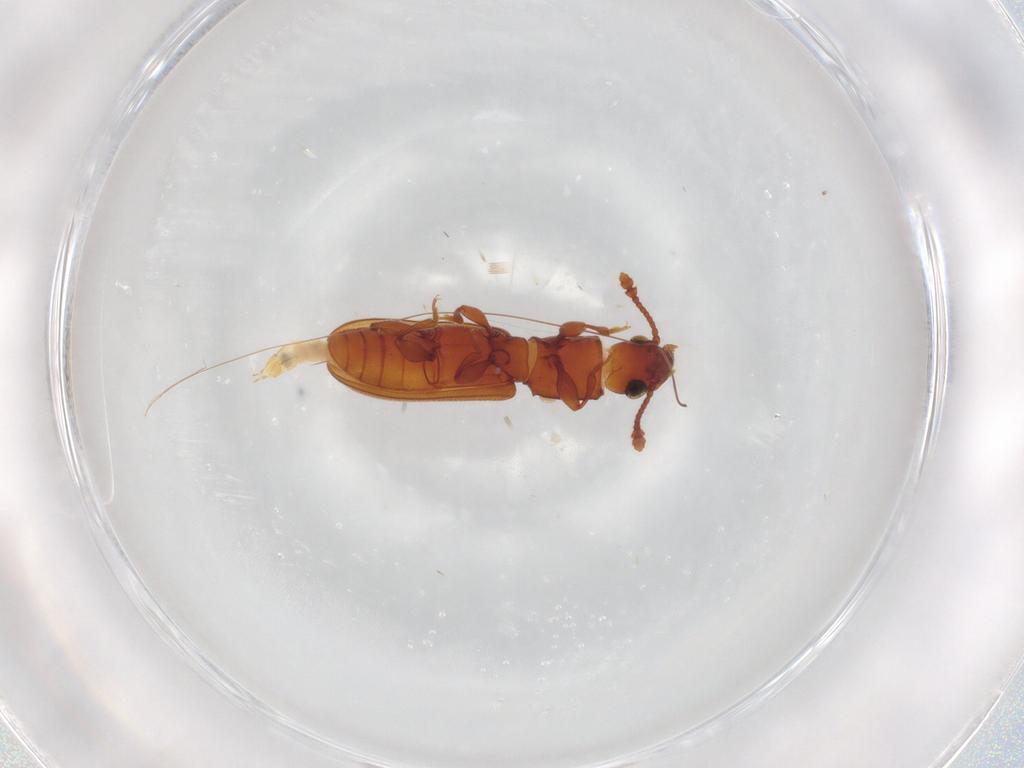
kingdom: Animalia
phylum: Arthropoda
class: Insecta
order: Coleoptera
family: Silvanidae
